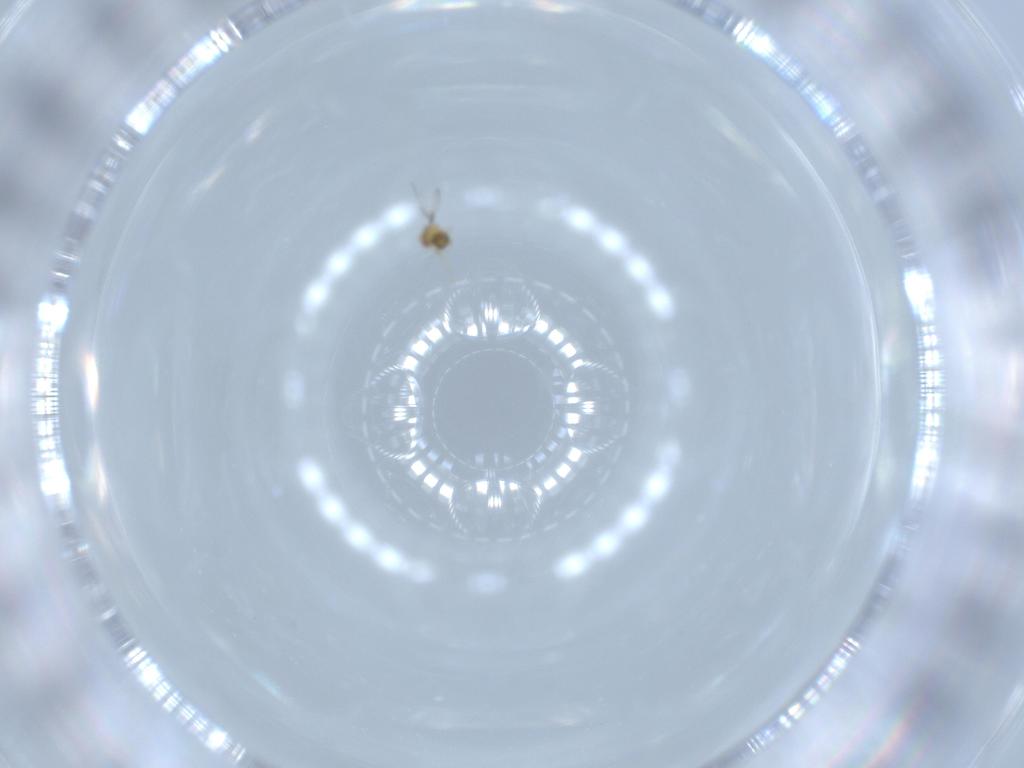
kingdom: Animalia
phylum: Arthropoda
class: Insecta
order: Hymenoptera
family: Trichogrammatidae
